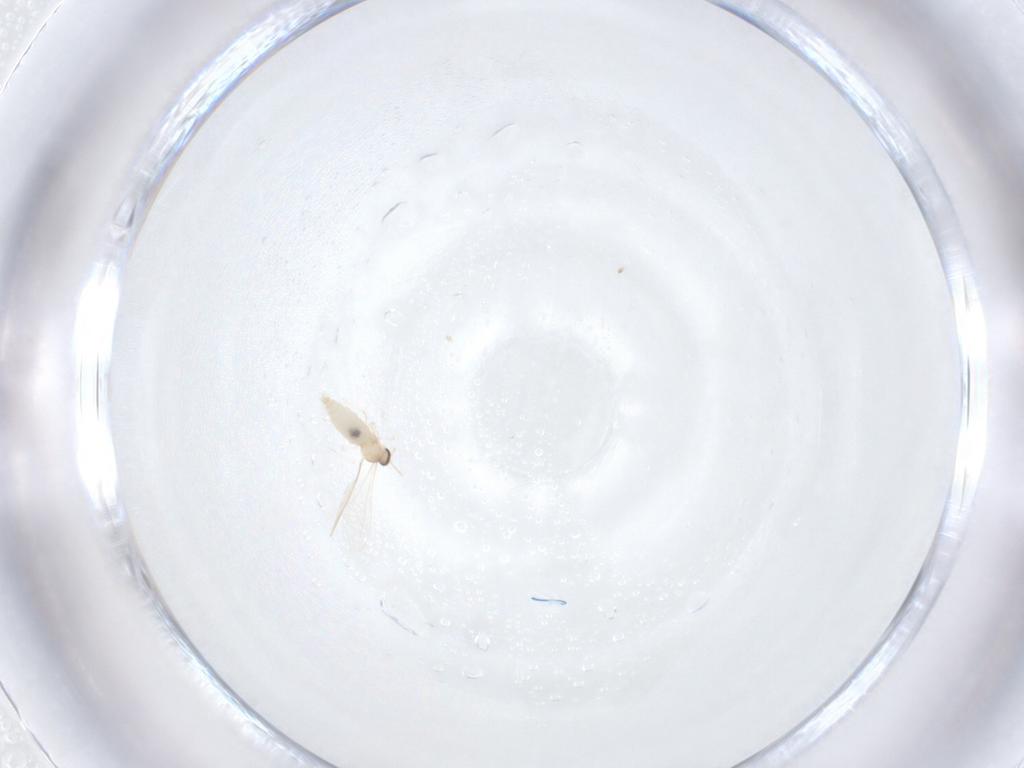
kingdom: Animalia
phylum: Arthropoda
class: Insecta
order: Diptera
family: Cecidomyiidae
